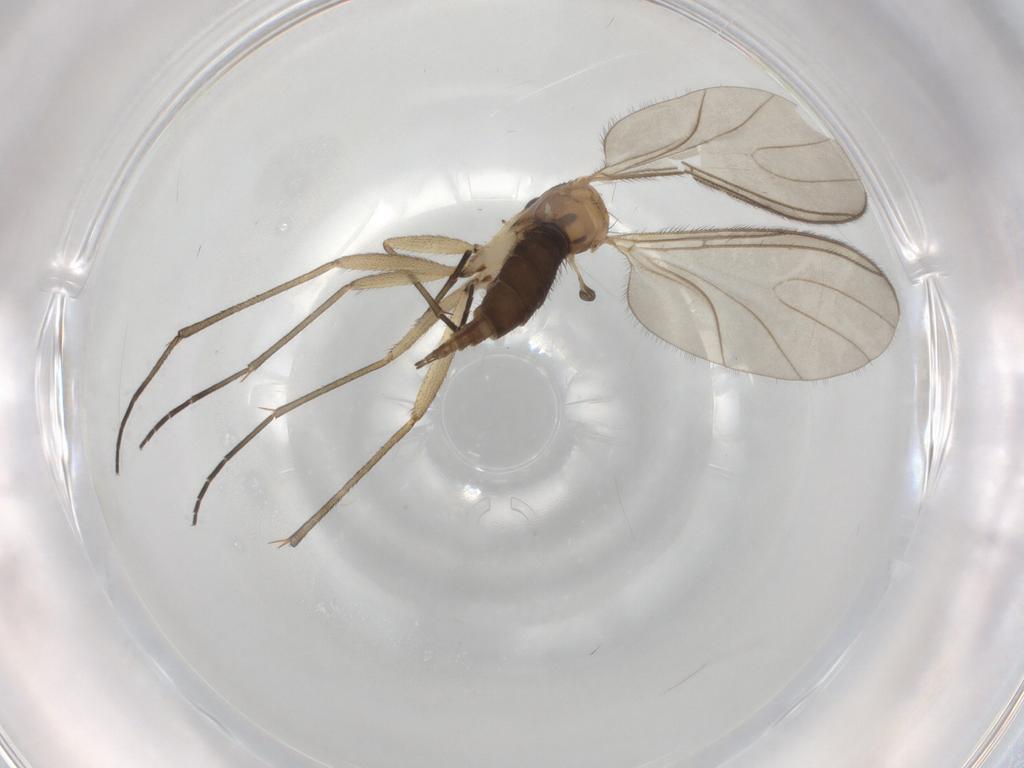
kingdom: Animalia
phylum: Arthropoda
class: Insecta
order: Diptera
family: Sciaridae
